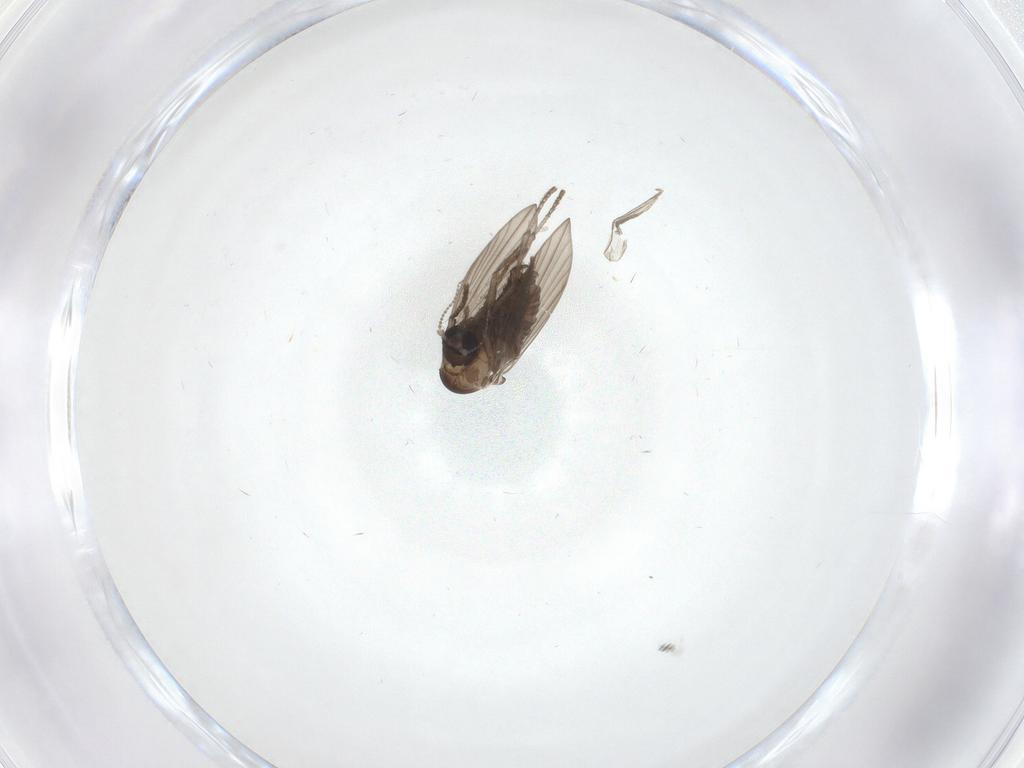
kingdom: Animalia
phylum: Arthropoda
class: Insecta
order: Diptera
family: Psychodidae
